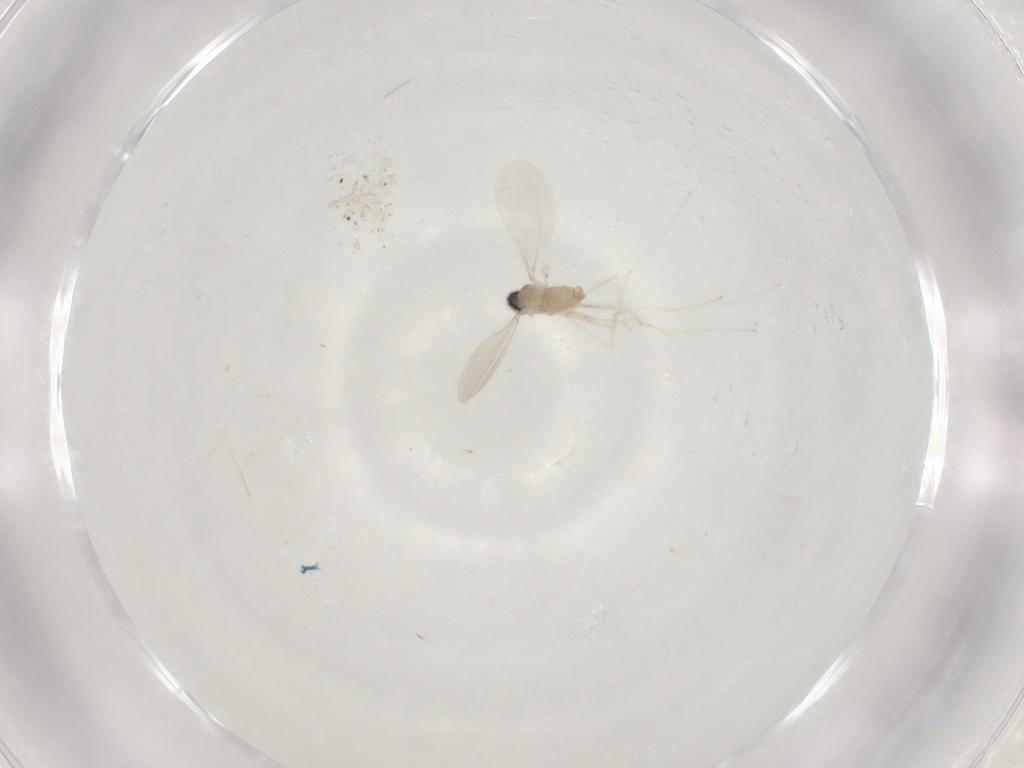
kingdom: Animalia
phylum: Arthropoda
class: Insecta
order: Diptera
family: Cecidomyiidae
